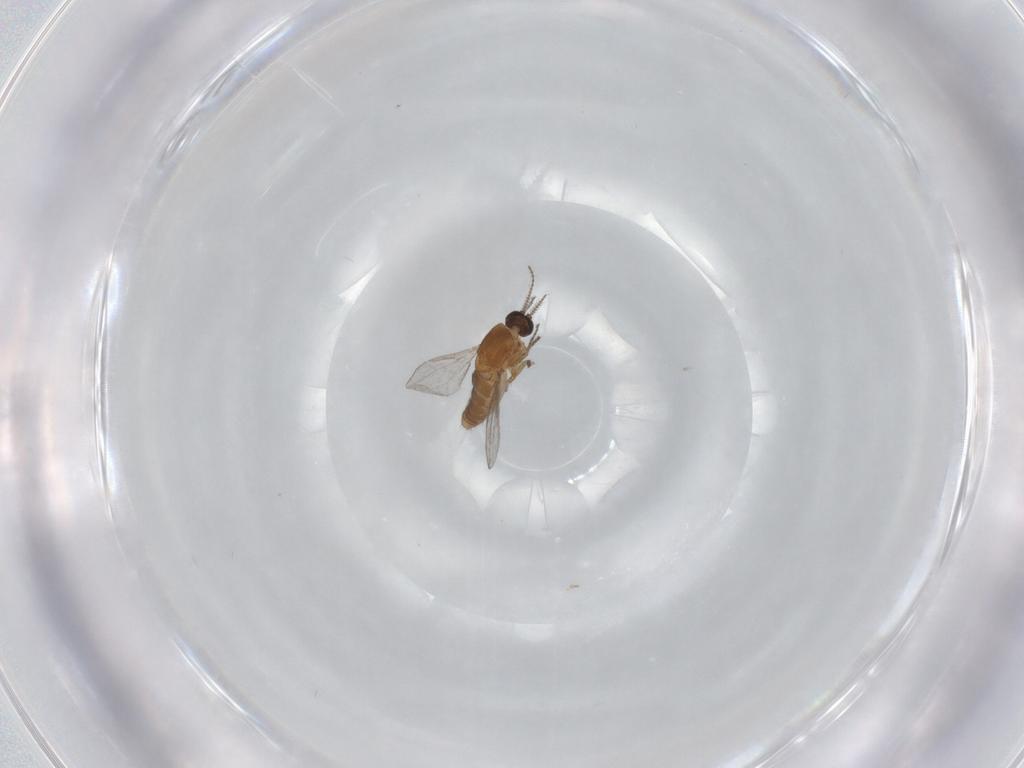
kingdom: Animalia
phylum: Arthropoda
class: Insecta
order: Diptera
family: Ceratopogonidae
